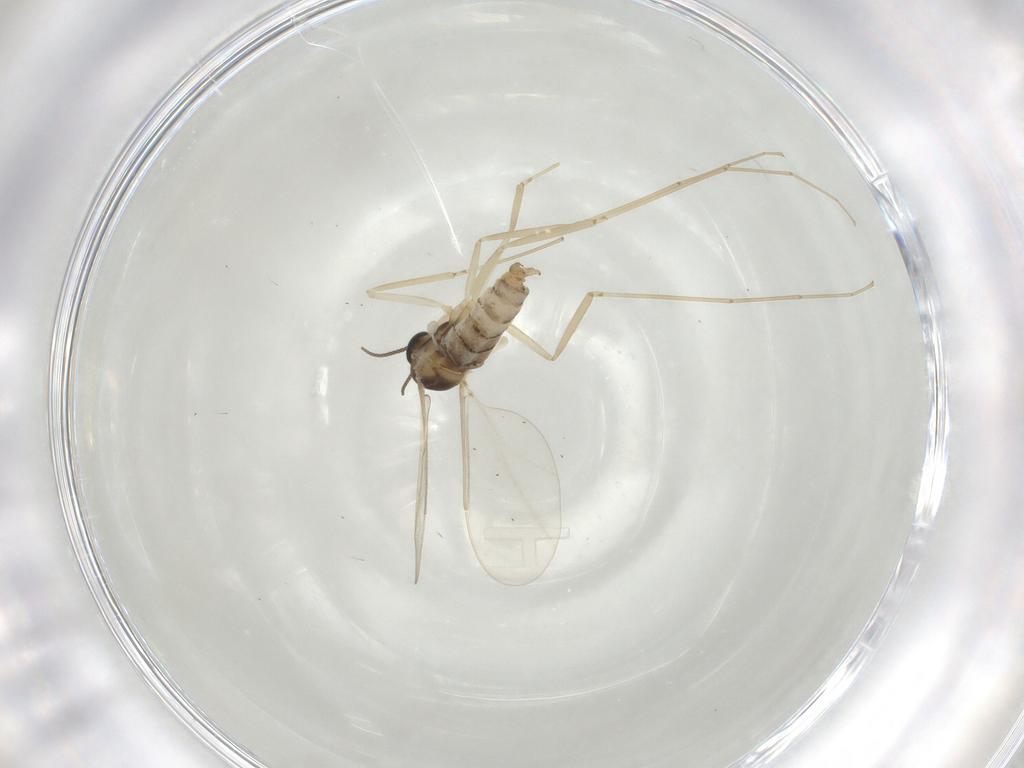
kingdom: Animalia
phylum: Arthropoda
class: Insecta
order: Diptera
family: Cecidomyiidae
